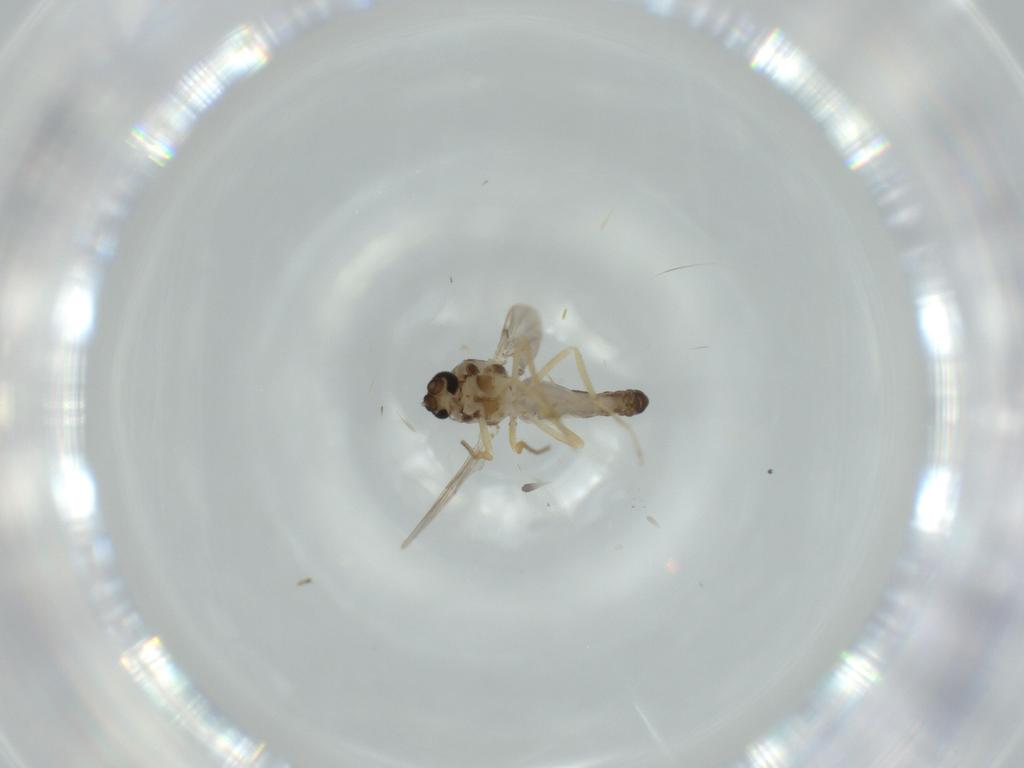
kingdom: Animalia
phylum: Arthropoda
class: Insecta
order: Diptera
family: Ceratopogonidae
